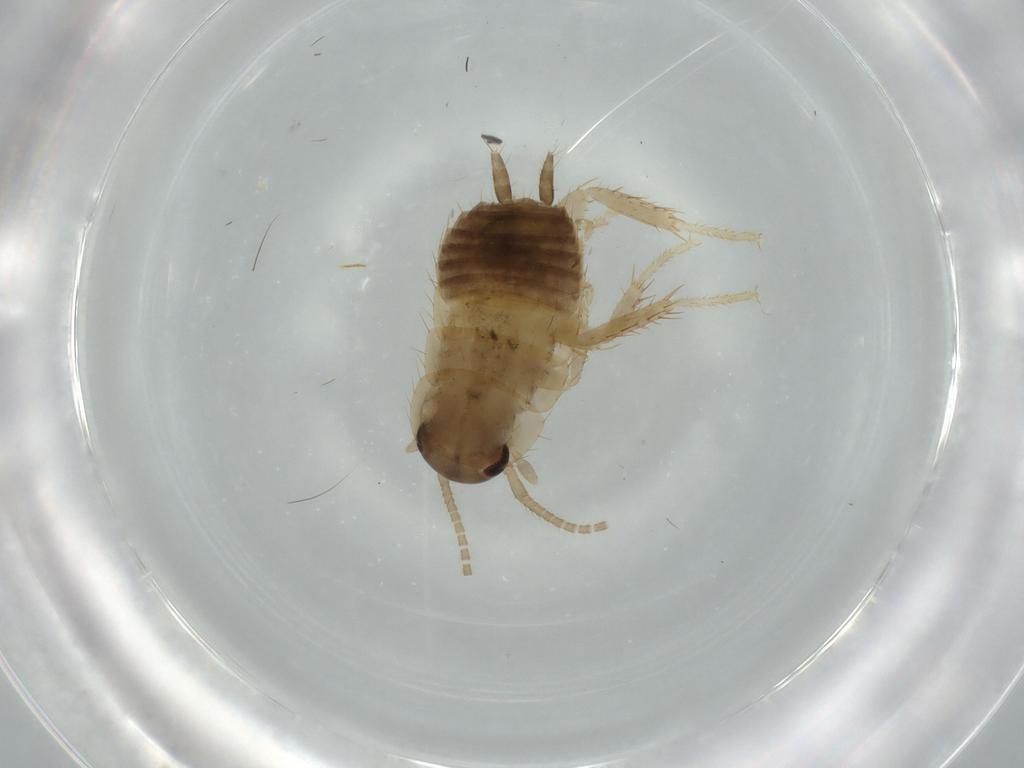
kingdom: Animalia
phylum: Arthropoda
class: Insecta
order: Blattodea
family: Ectobiidae
